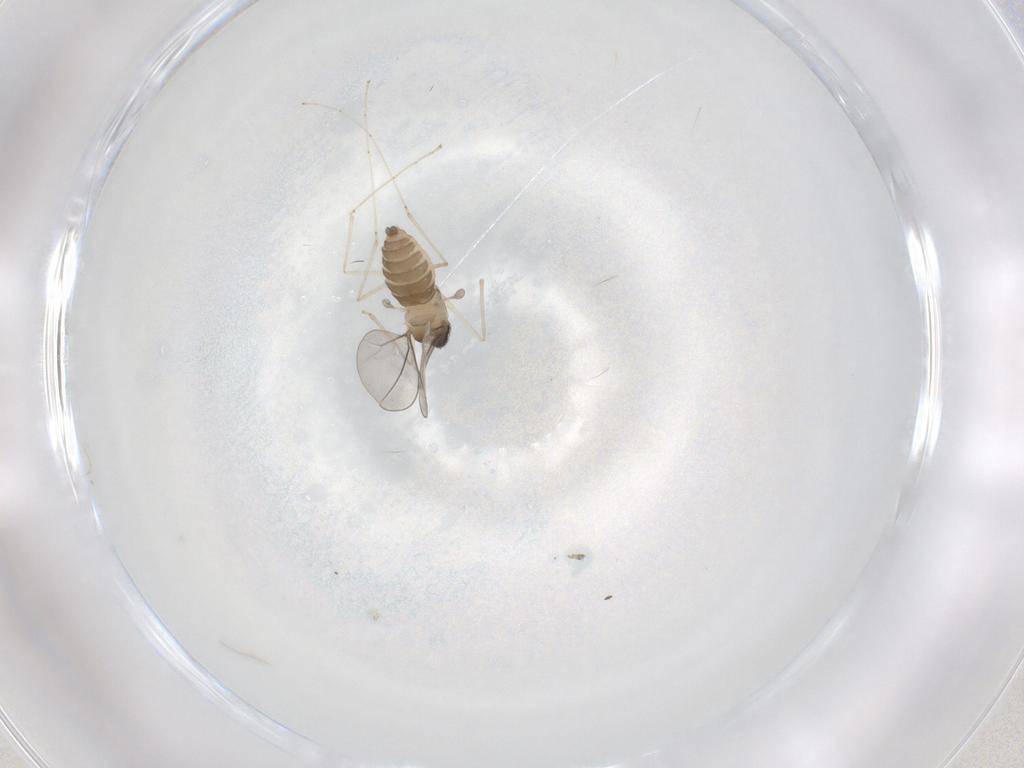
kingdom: Animalia
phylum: Arthropoda
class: Insecta
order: Diptera
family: Cecidomyiidae
